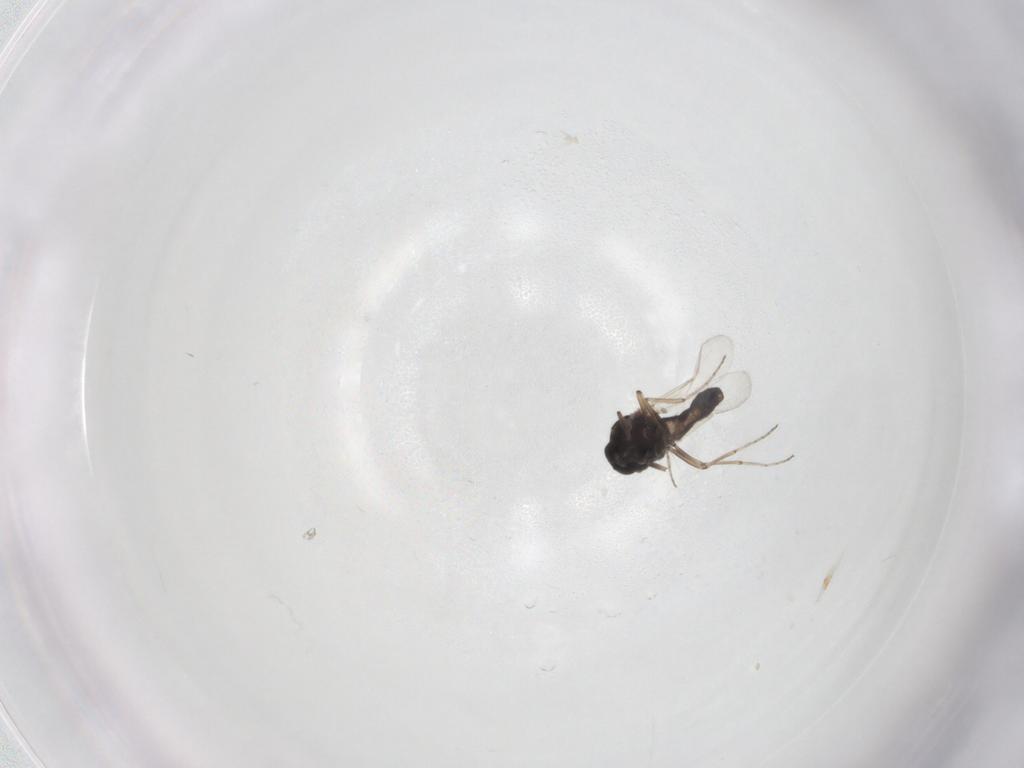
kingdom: Animalia
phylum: Arthropoda
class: Insecta
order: Diptera
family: Ceratopogonidae
